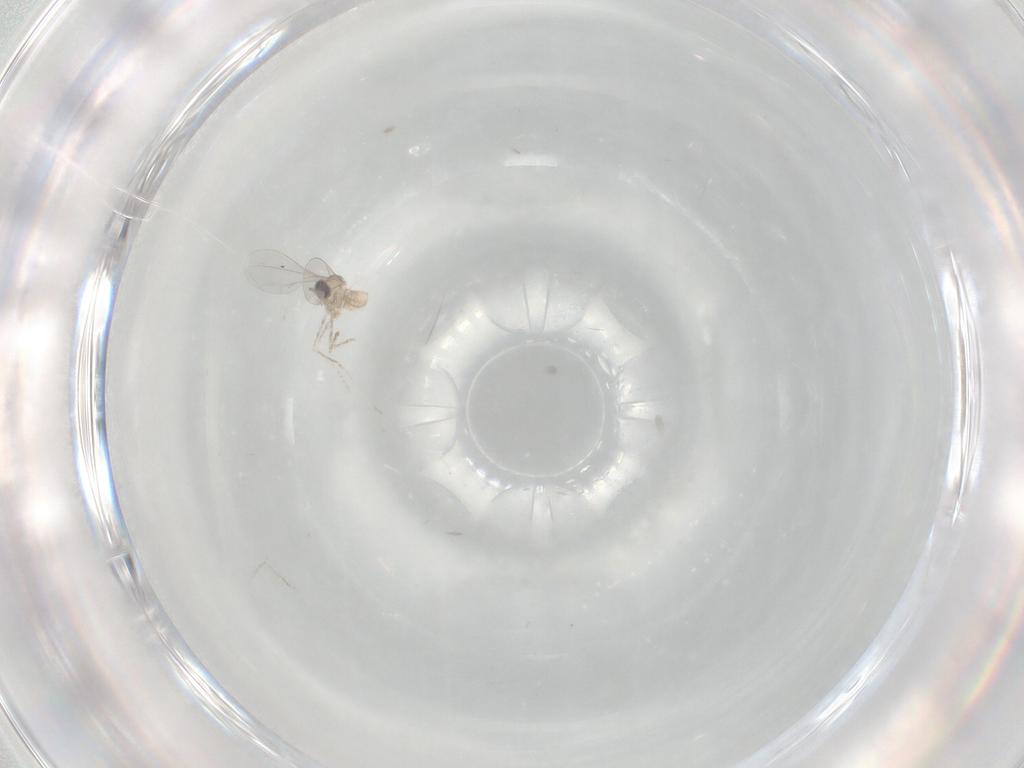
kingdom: Animalia
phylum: Arthropoda
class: Insecta
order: Diptera
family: Cecidomyiidae
